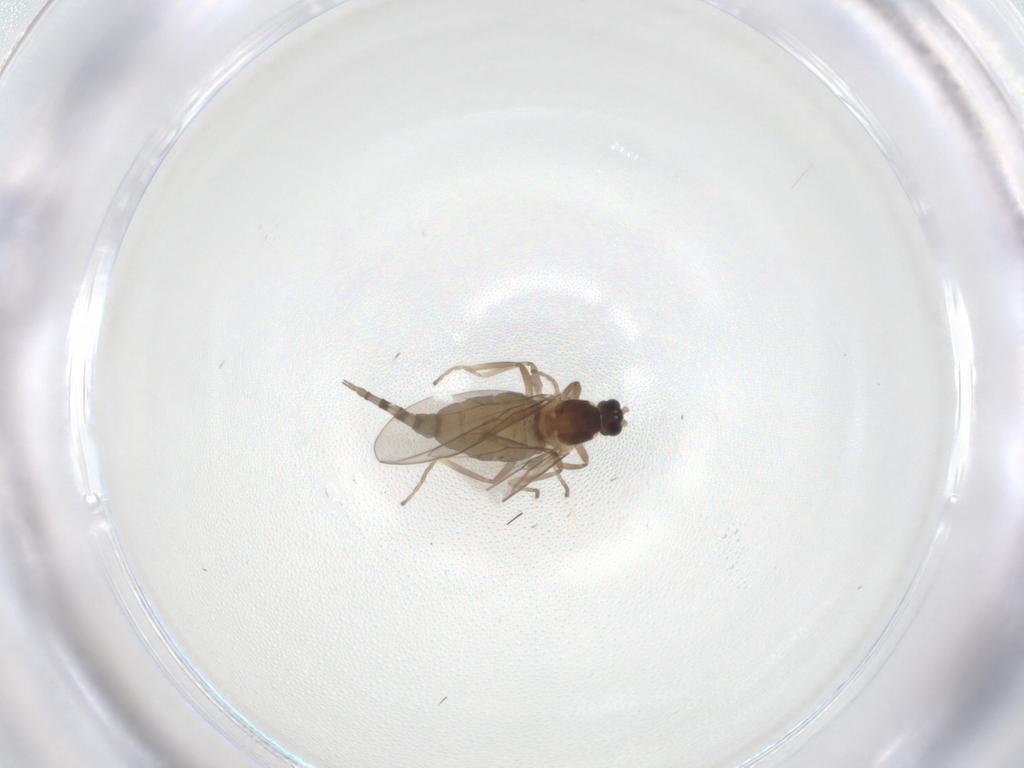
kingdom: Animalia
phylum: Arthropoda
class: Insecta
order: Diptera
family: Cecidomyiidae
